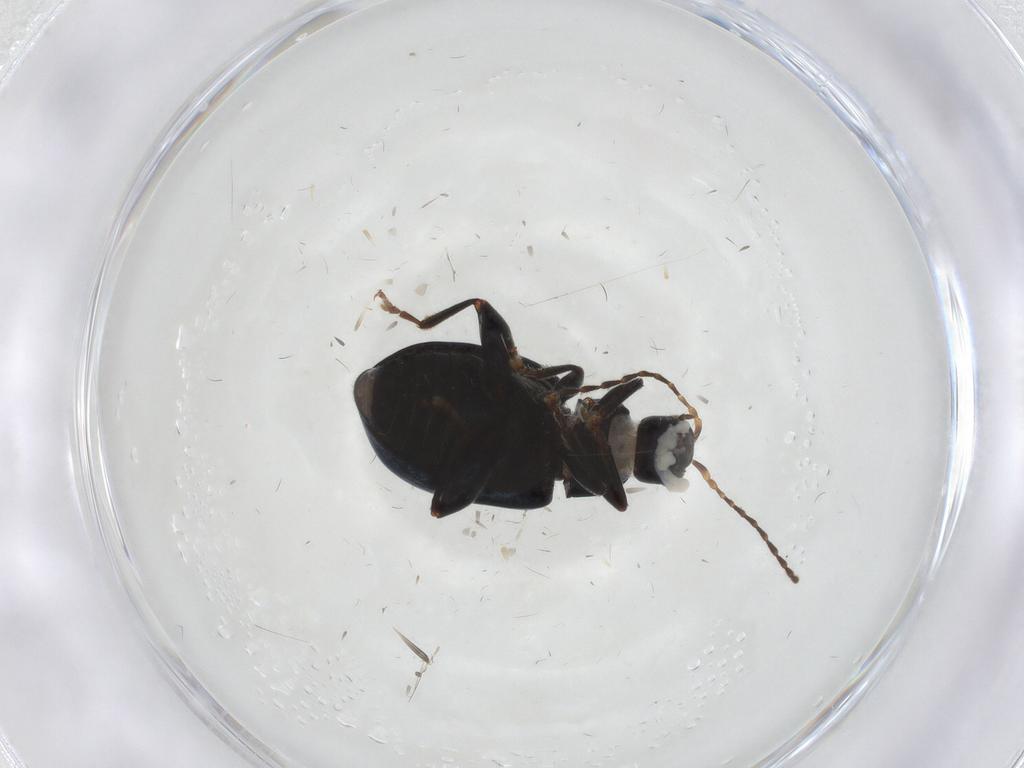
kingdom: Animalia
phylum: Arthropoda
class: Insecta
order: Coleoptera
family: Chrysomelidae
